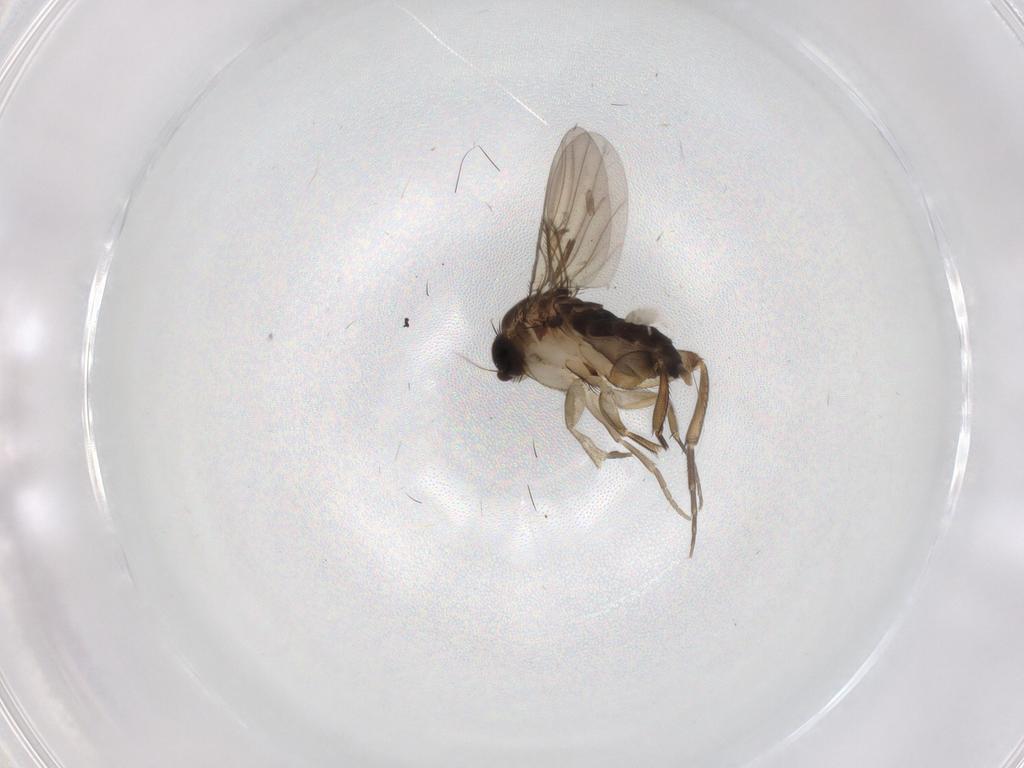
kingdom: Animalia
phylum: Arthropoda
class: Insecta
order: Diptera
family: Phoridae
